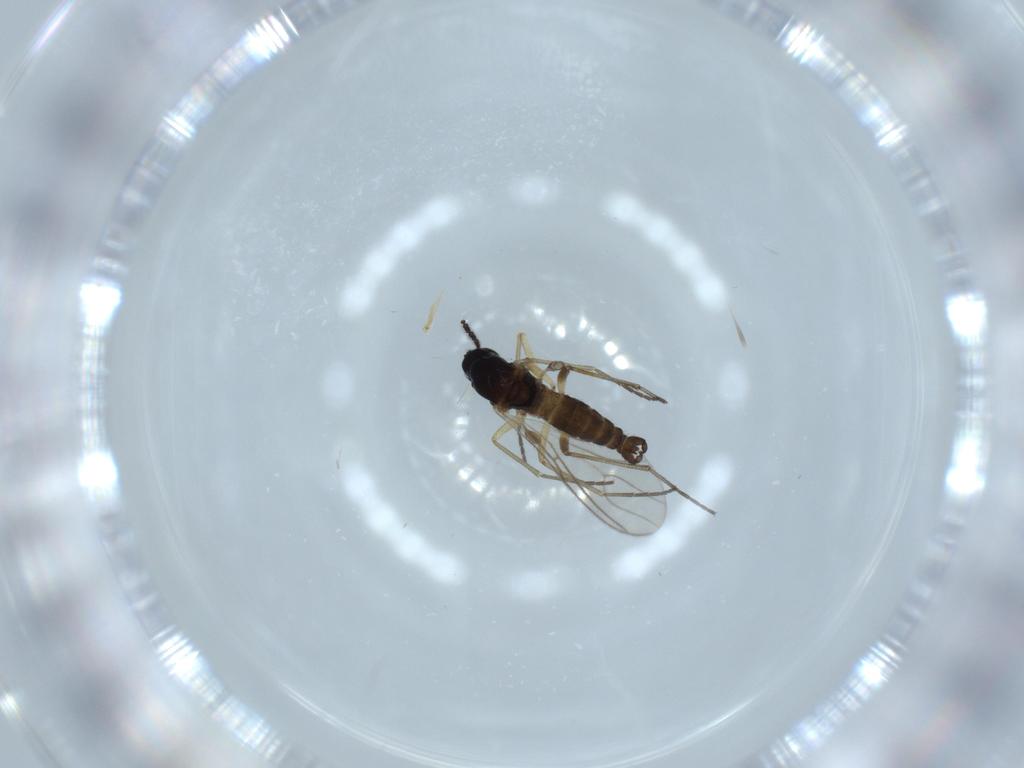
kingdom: Animalia
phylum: Arthropoda
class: Insecta
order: Diptera
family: Sciaridae
